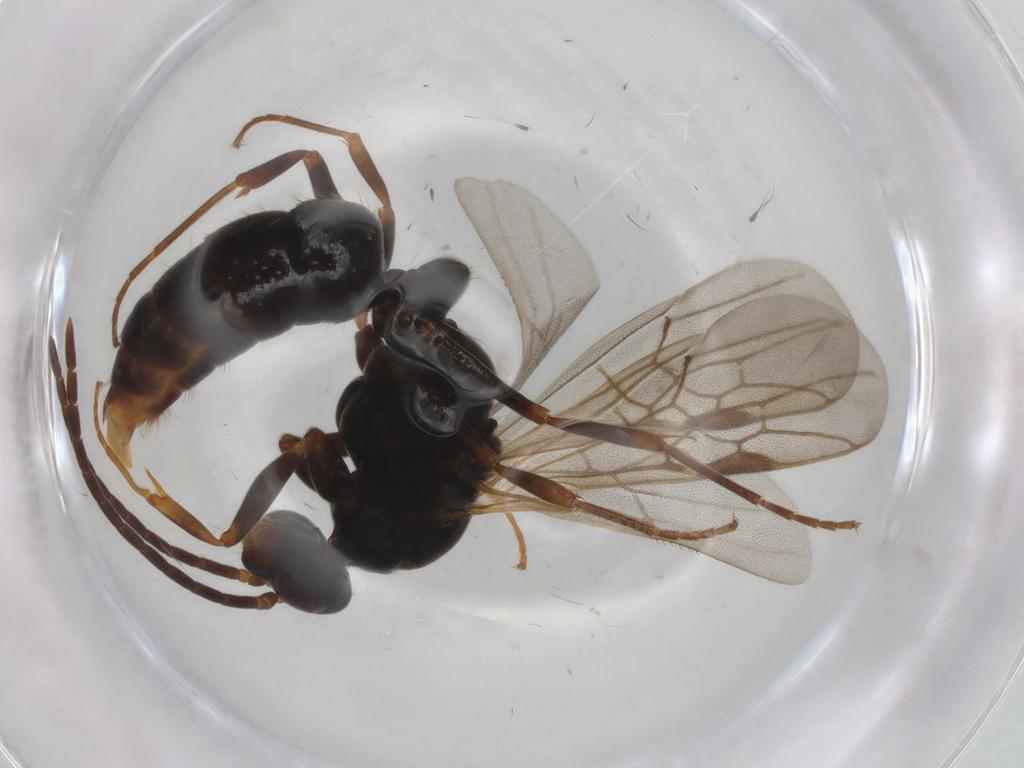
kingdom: Animalia
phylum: Arthropoda
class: Insecta
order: Hymenoptera
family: Formicidae
